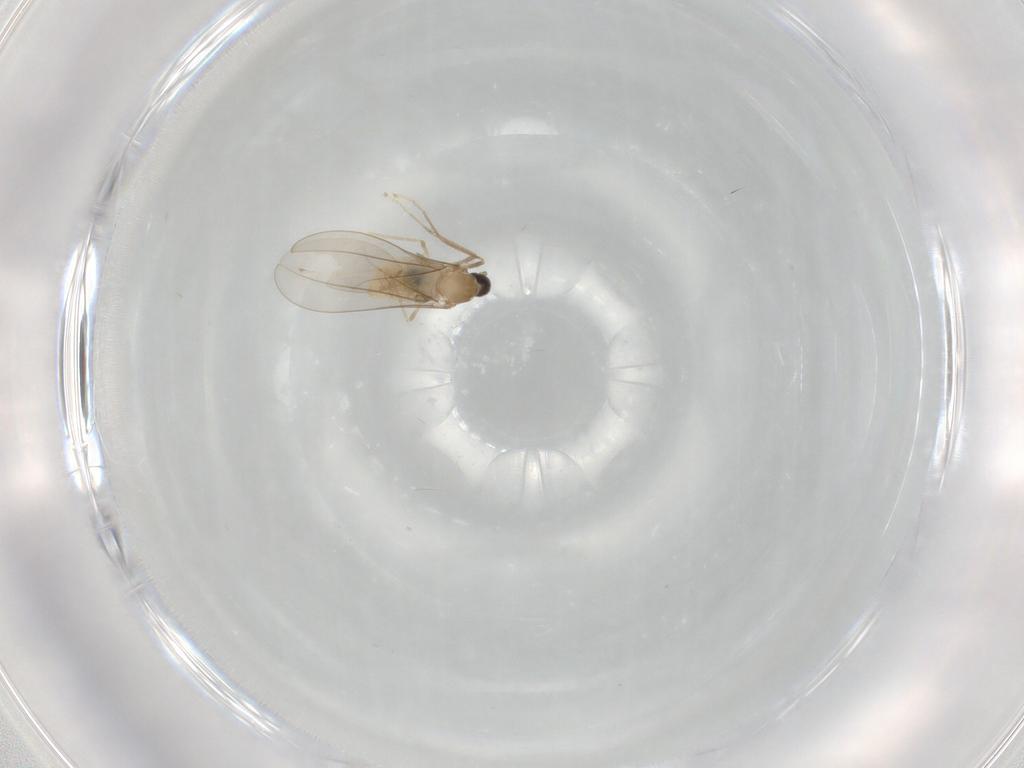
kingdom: Animalia
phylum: Arthropoda
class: Insecta
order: Diptera
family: Cecidomyiidae
